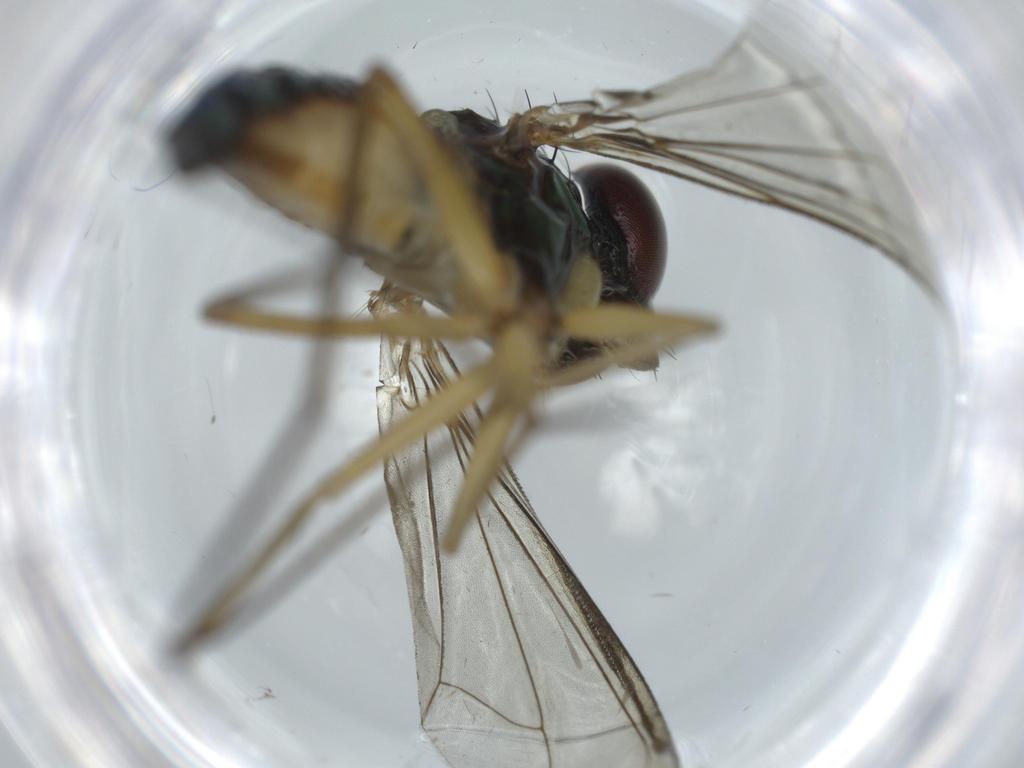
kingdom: Animalia
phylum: Arthropoda
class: Insecta
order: Diptera
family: Dolichopodidae
